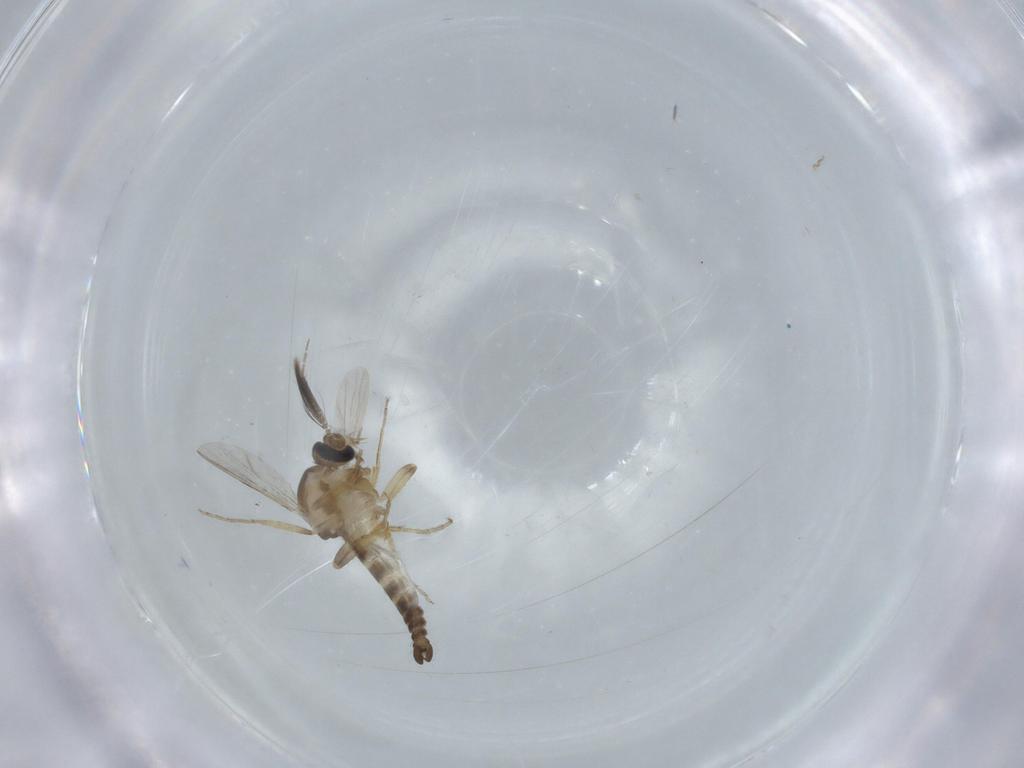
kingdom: Animalia
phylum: Arthropoda
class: Insecta
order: Diptera
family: Ceratopogonidae
